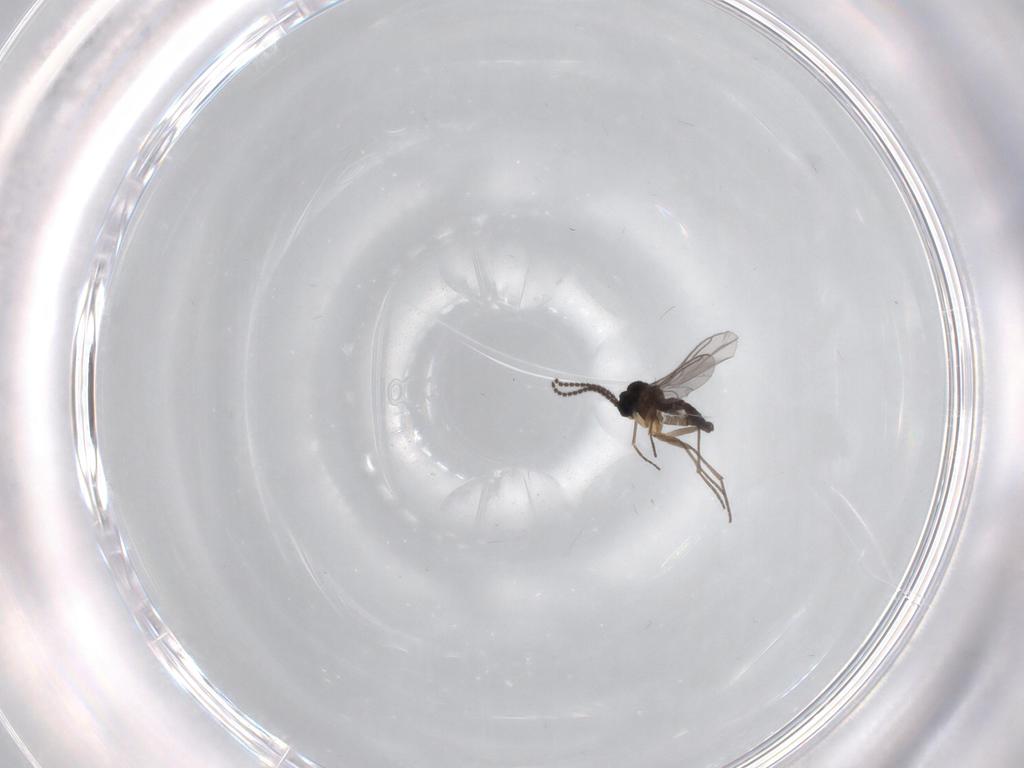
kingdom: Animalia
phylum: Arthropoda
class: Insecta
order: Diptera
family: Sciaridae
